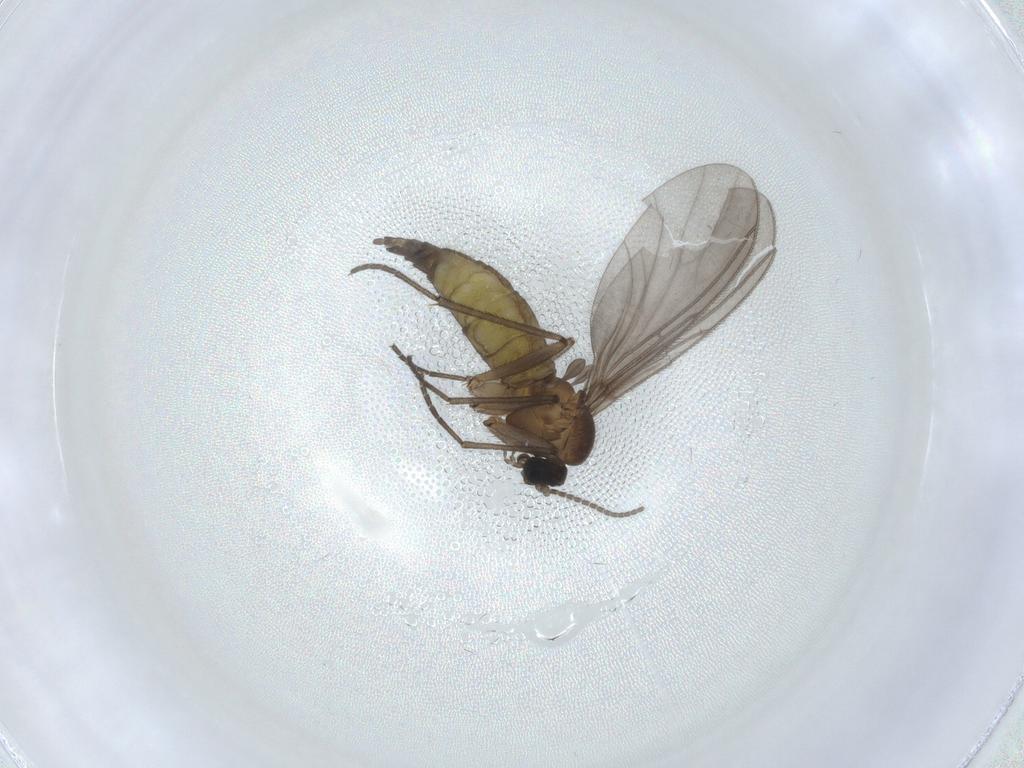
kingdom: Animalia
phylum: Arthropoda
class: Insecta
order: Diptera
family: Sciaridae
